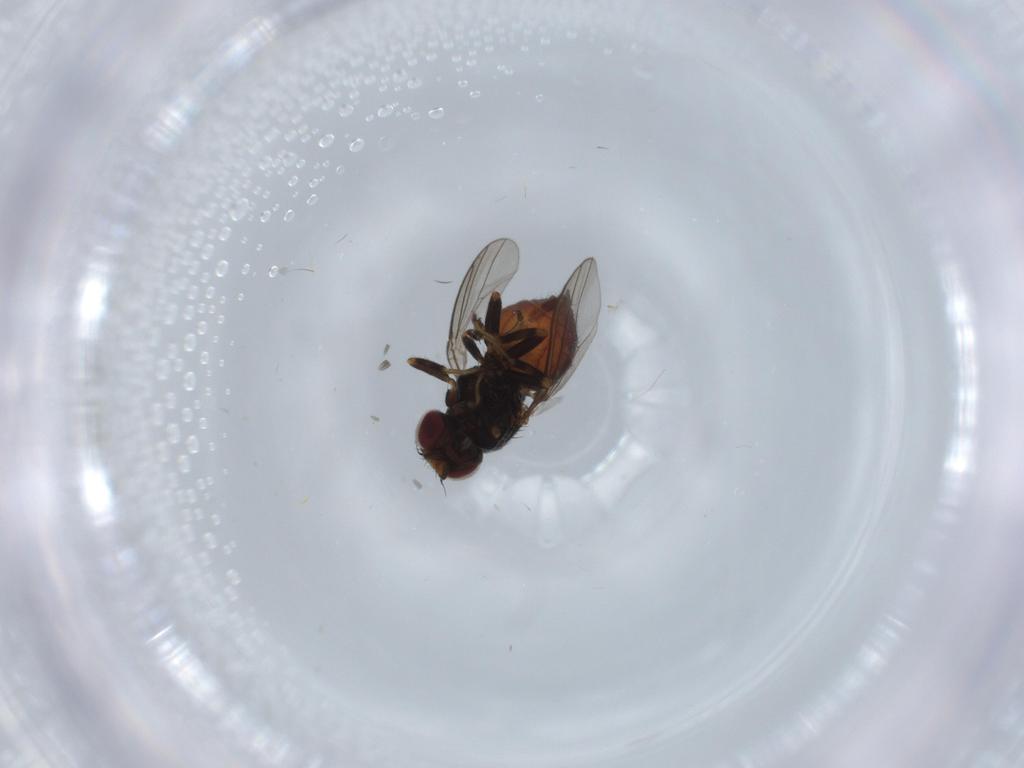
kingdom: Animalia
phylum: Arthropoda
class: Insecta
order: Diptera
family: Chloropidae
